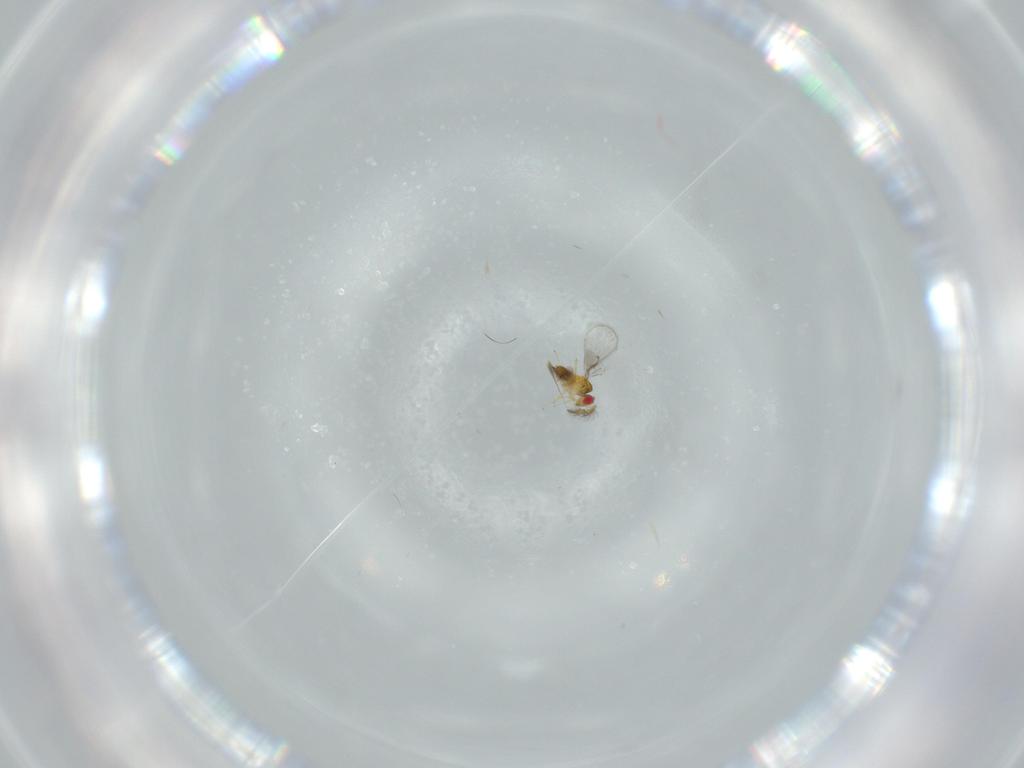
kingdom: Animalia
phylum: Arthropoda
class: Insecta
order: Hymenoptera
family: Trichogrammatidae
